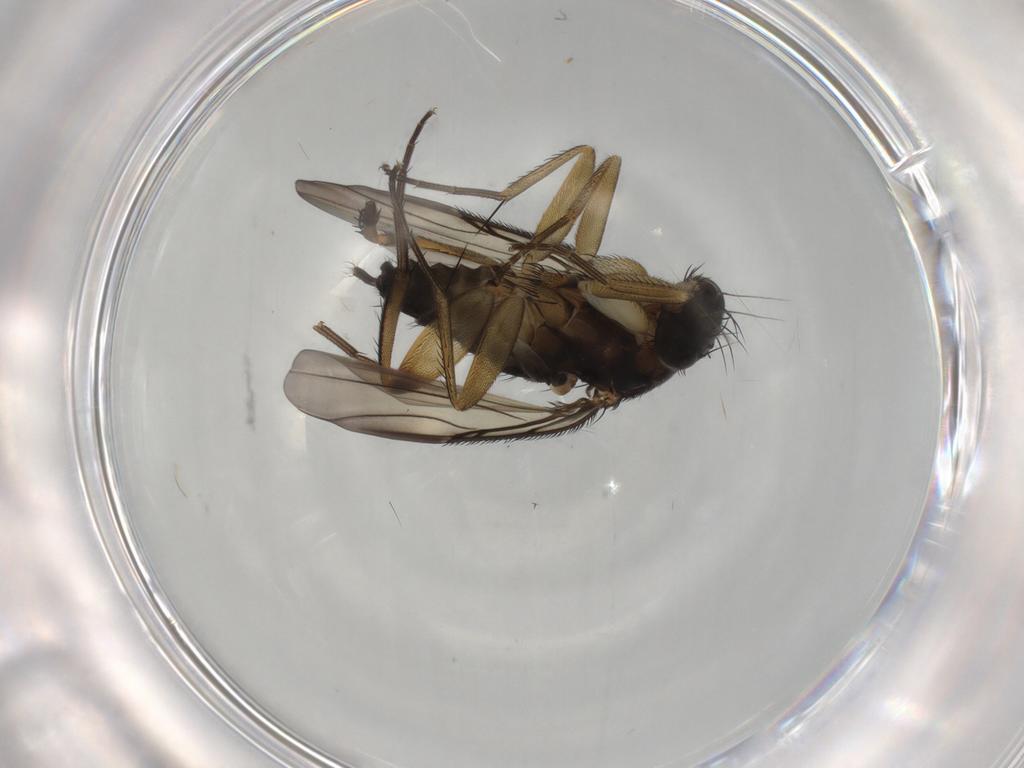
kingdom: Animalia
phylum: Arthropoda
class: Insecta
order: Diptera
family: Phoridae
